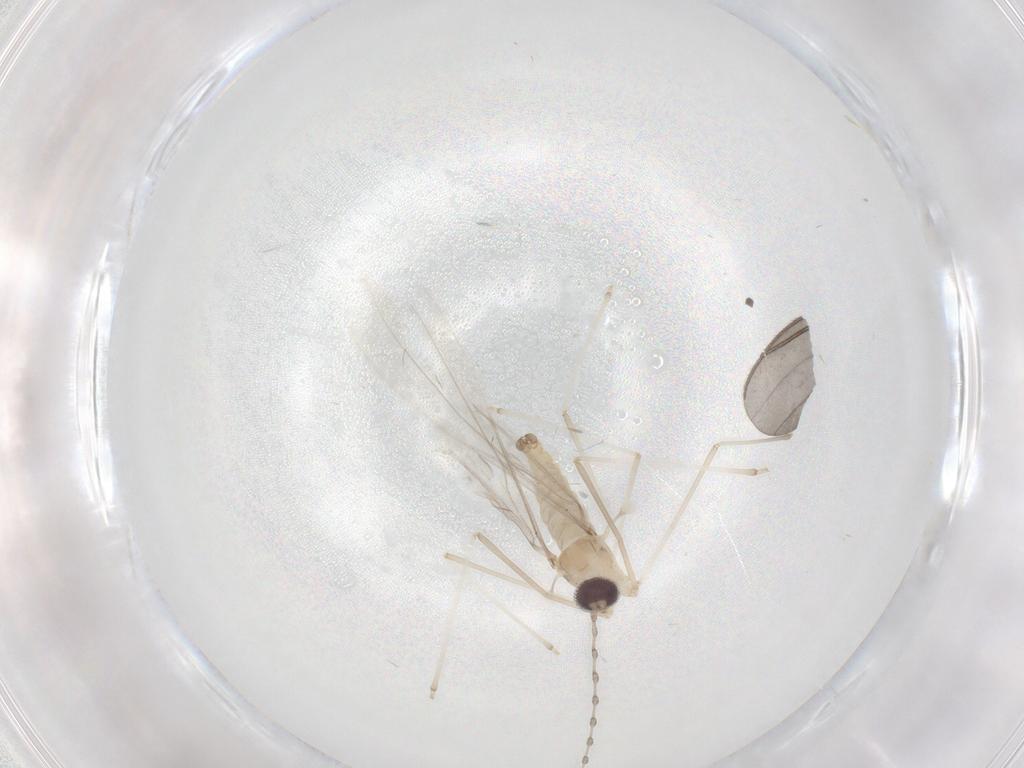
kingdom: Animalia
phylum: Arthropoda
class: Insecta
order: Diptera
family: Cecidomyiidae
